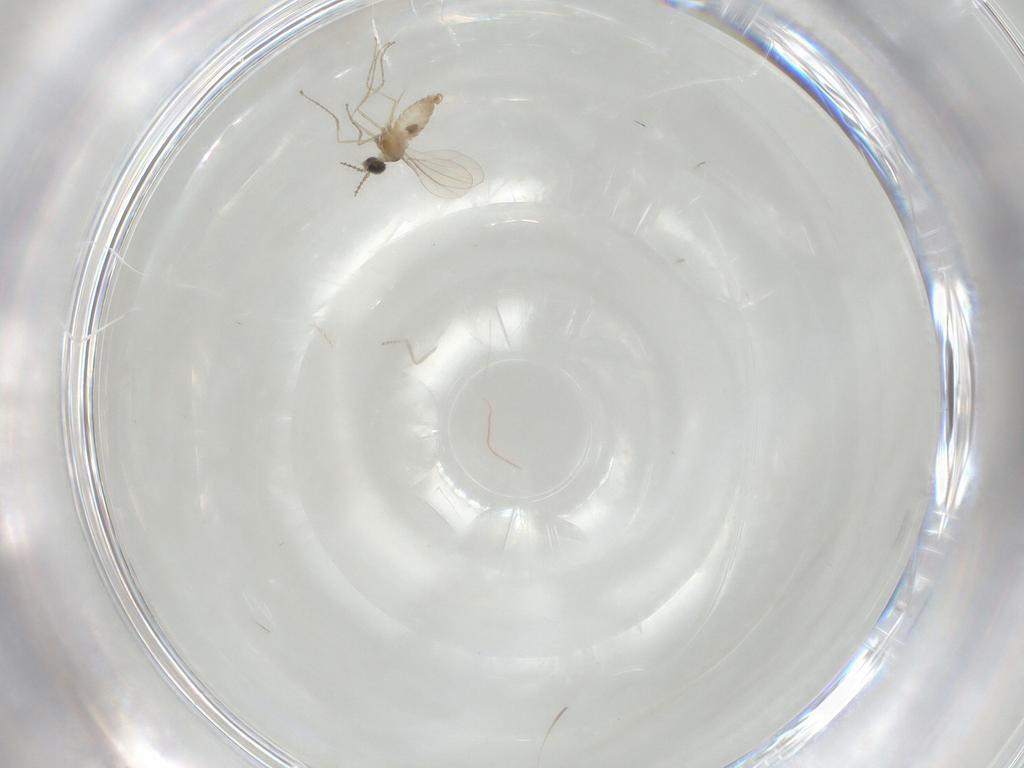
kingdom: Animalia
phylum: Arthropoda
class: Insecta
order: Diptera
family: Cecidomyiidae
